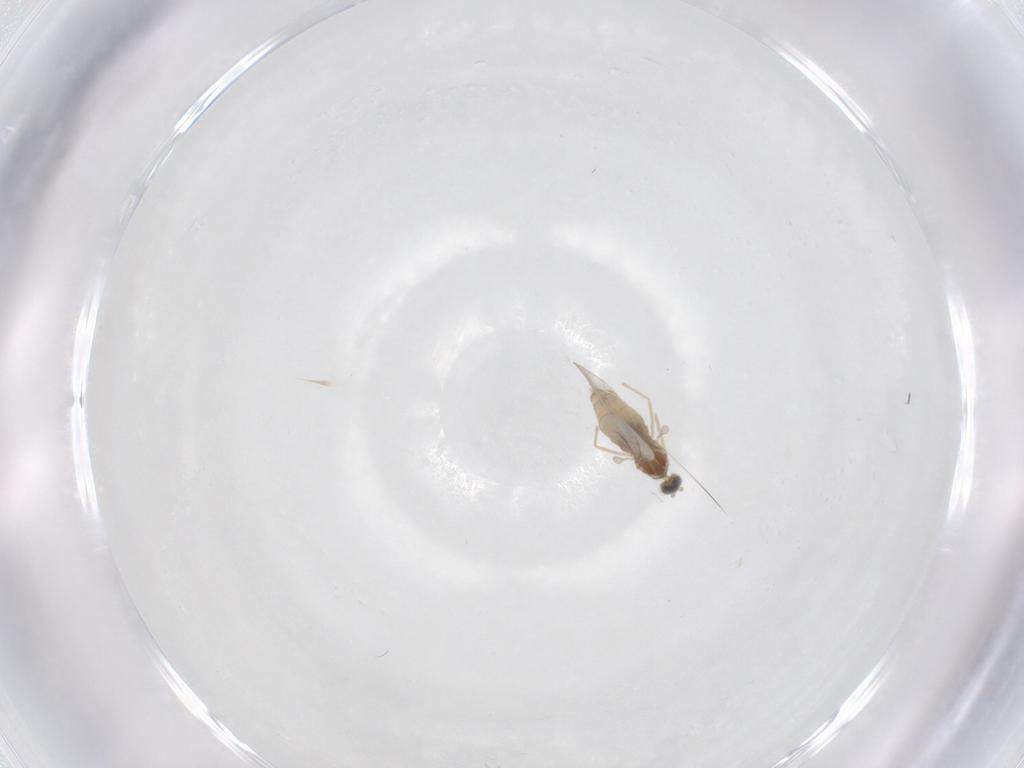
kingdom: Animalia
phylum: Arthropoda
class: Insecta
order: Diptera
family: Cecidomyiidae
